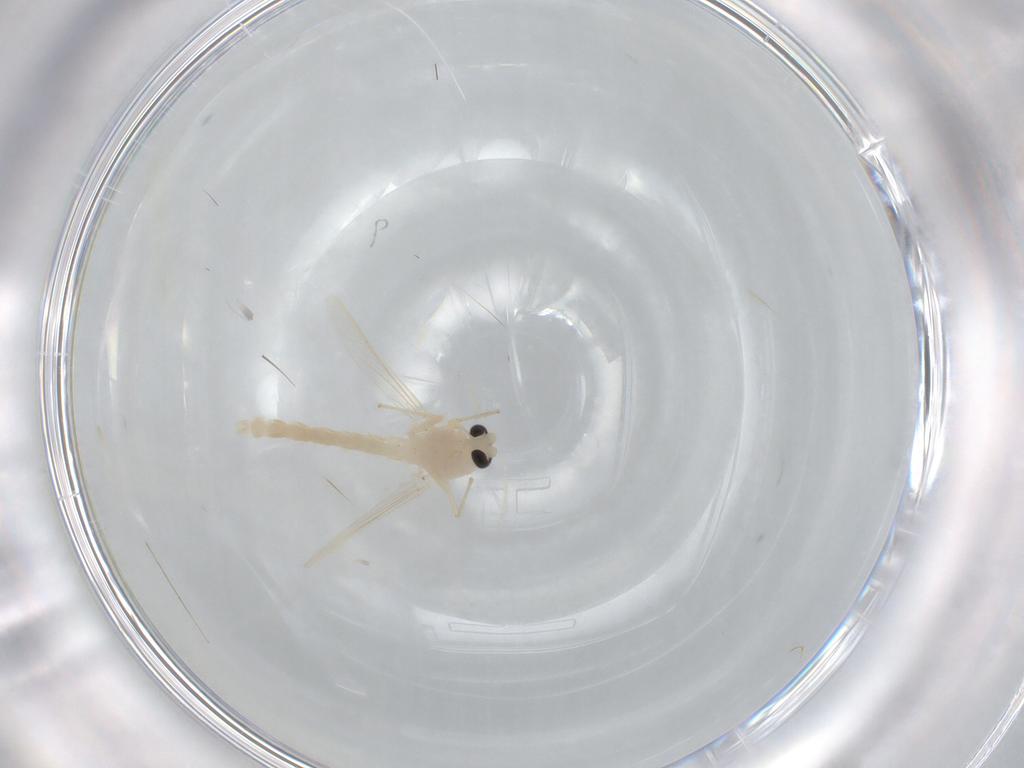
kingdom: Animalia
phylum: Arthropoda
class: Insecta
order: Diptera
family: Chironomidae
